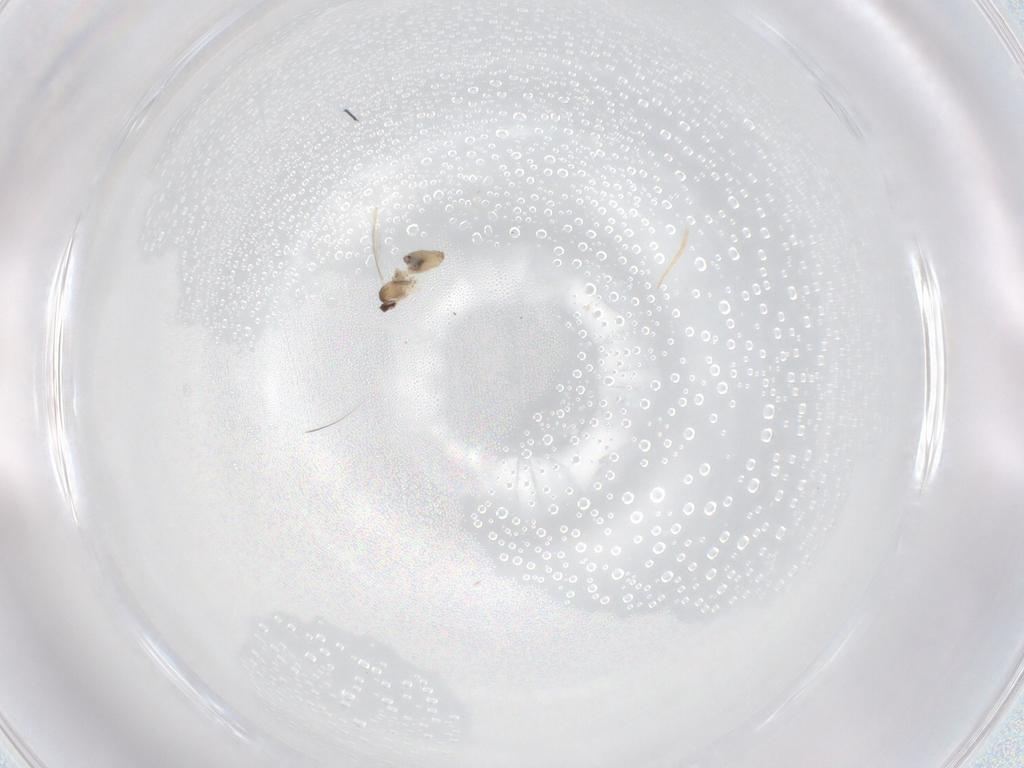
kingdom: Animalia
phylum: Arthropoda
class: Insecta
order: Diptera
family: Cecidomyiidae
